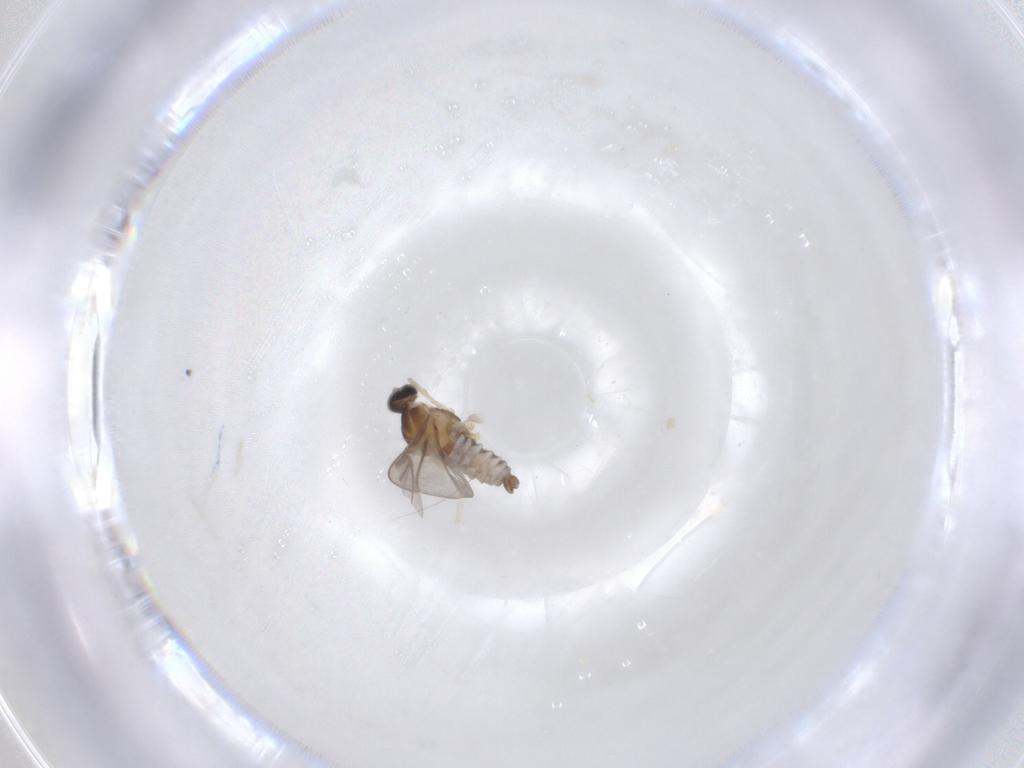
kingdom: Animalia
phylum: Arthropoda
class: Insecta
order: Diptera
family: Cecidomyiidae
